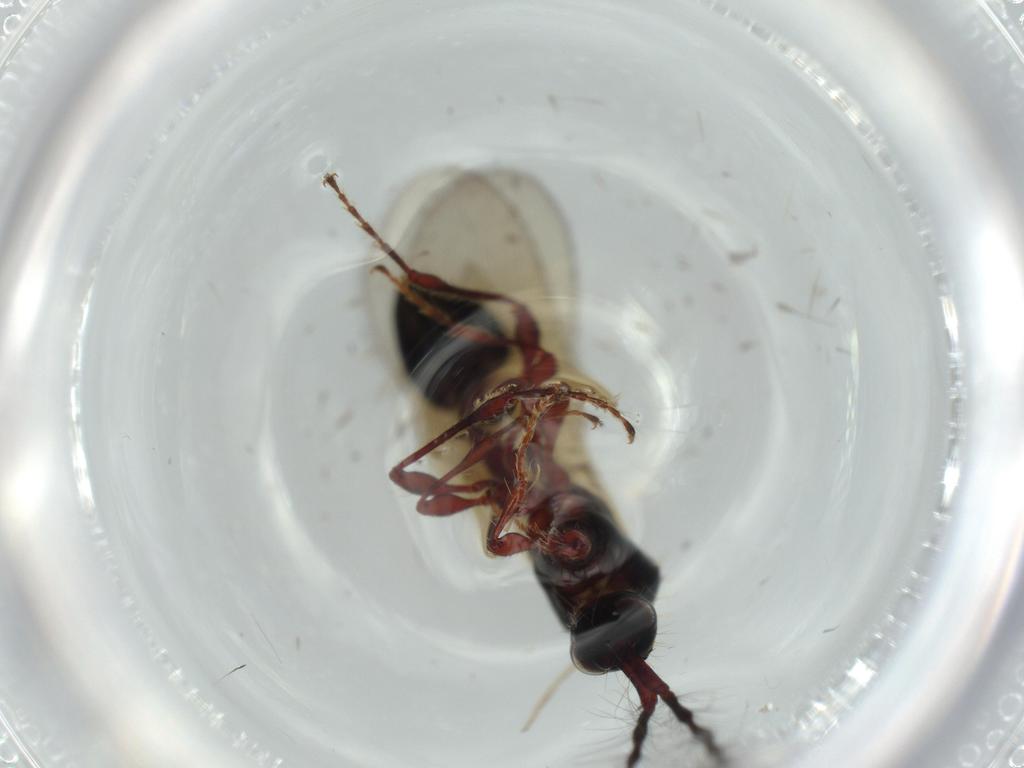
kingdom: Animalia
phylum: Arthropoda
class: Insecta
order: Hymenoptera
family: Diapriidae
